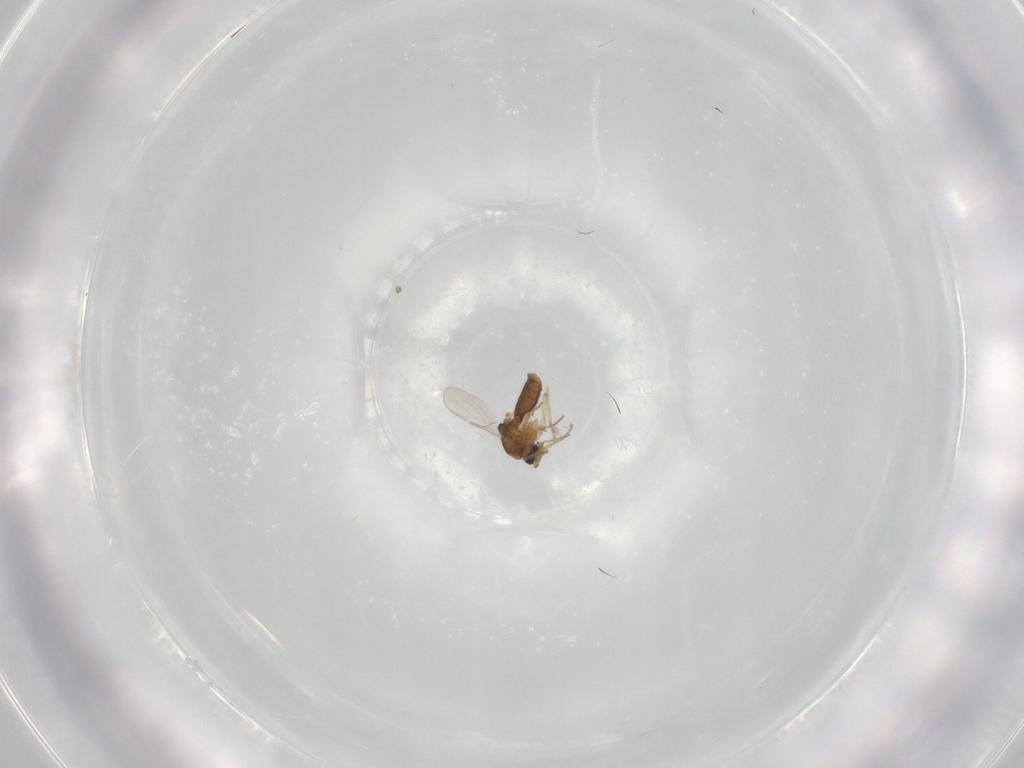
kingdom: Animalia
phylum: Arthropoda
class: Insecta
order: Diptera
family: Ceratopogonidae
